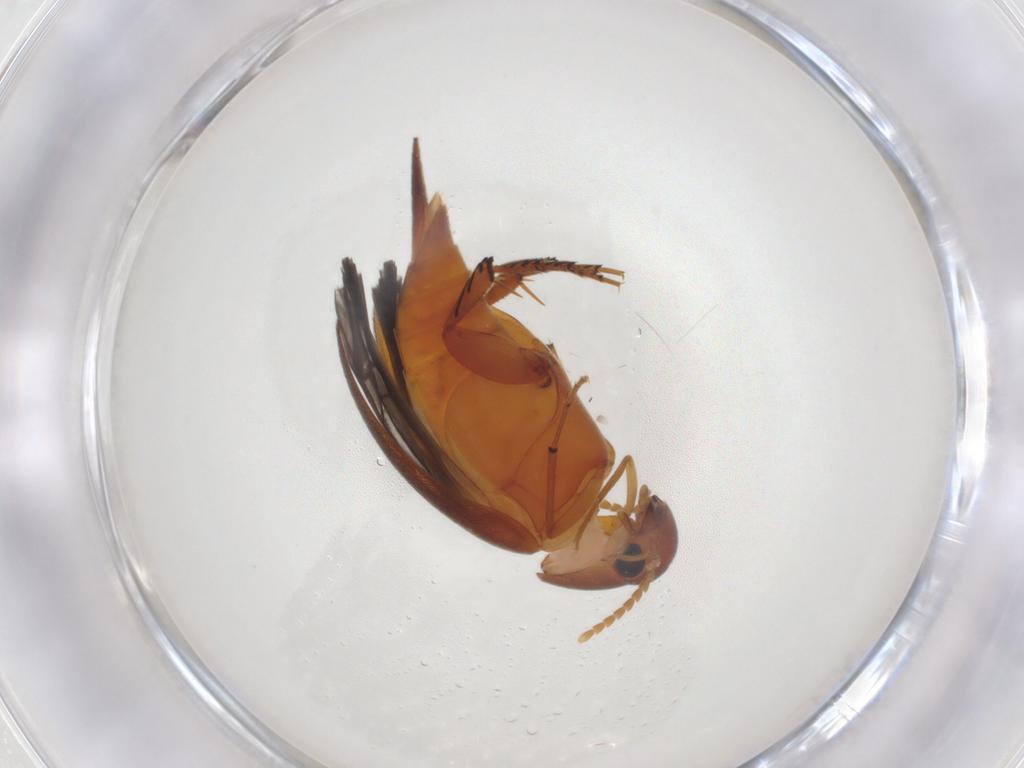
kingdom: Animalia
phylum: Arthropoda
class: Insecta
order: Coleoptera
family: Mordellidae
